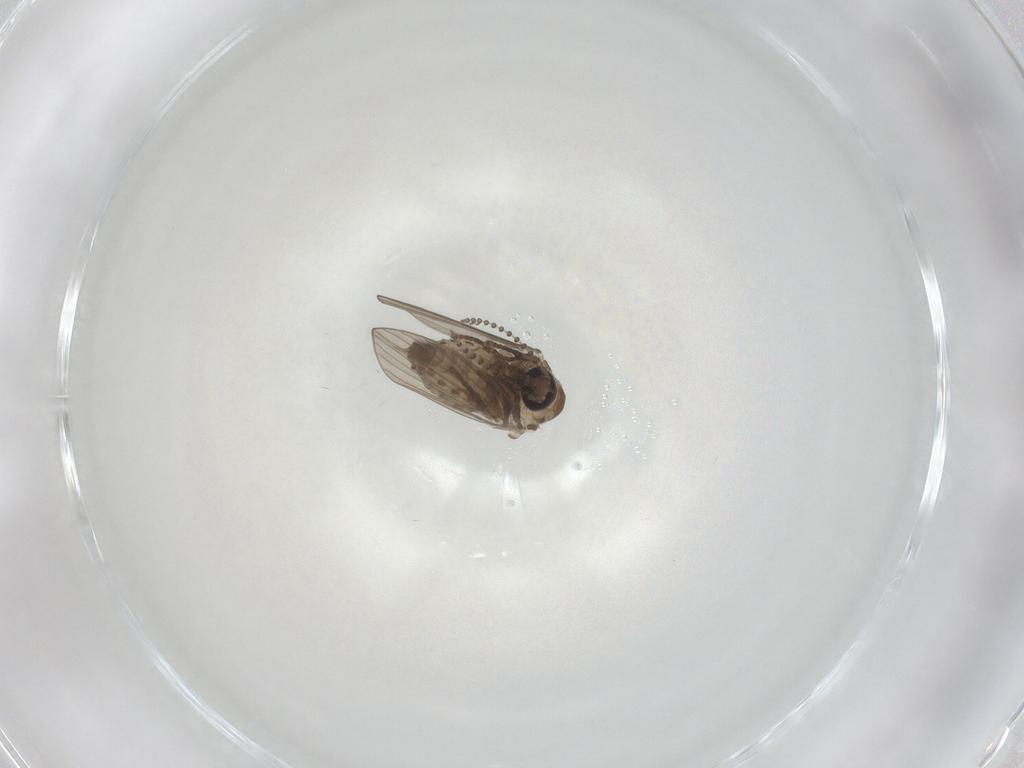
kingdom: Animalia
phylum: Arthropoda
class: Insecta
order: Diptera
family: Psychodidae
